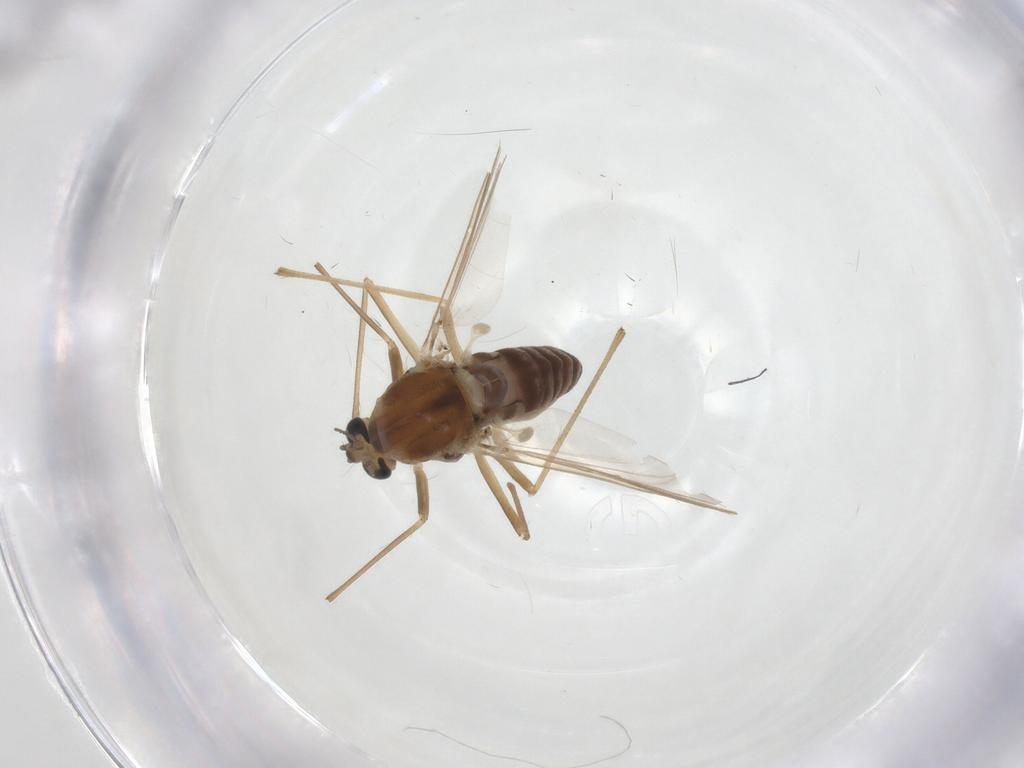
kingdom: Animalia
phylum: Arthropoda
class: Insecta
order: Diptera
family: Chironomidae
